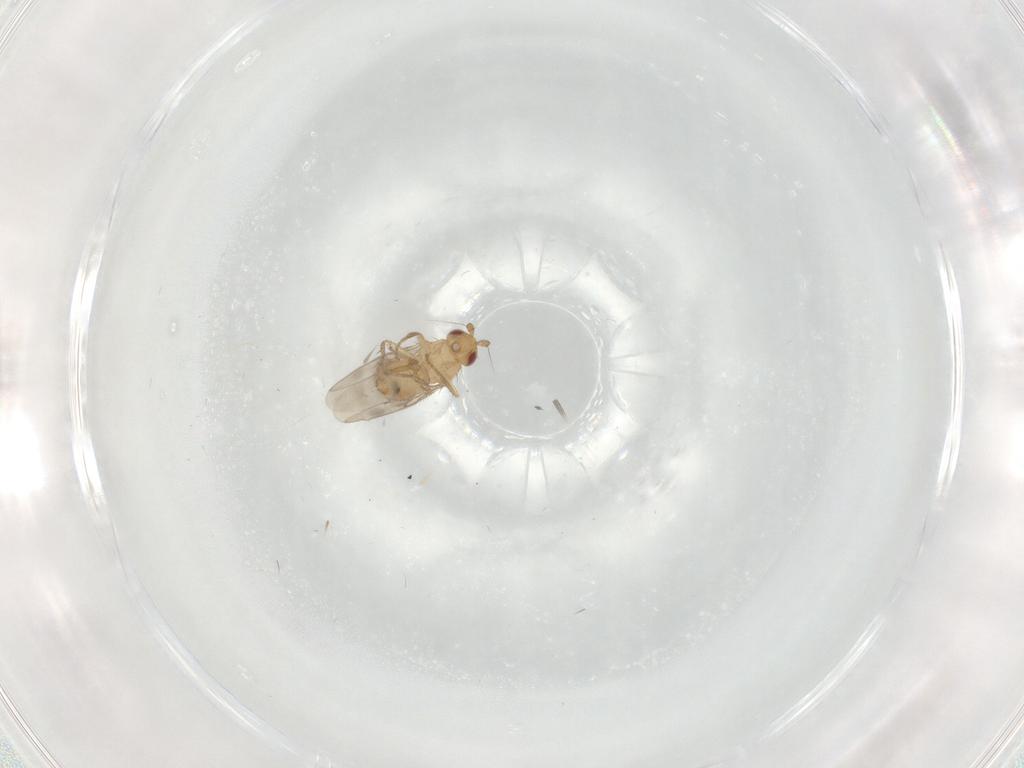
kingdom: Animalia
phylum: Arthropoda
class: Insecta
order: Diptera
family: Sphaeroceridae
